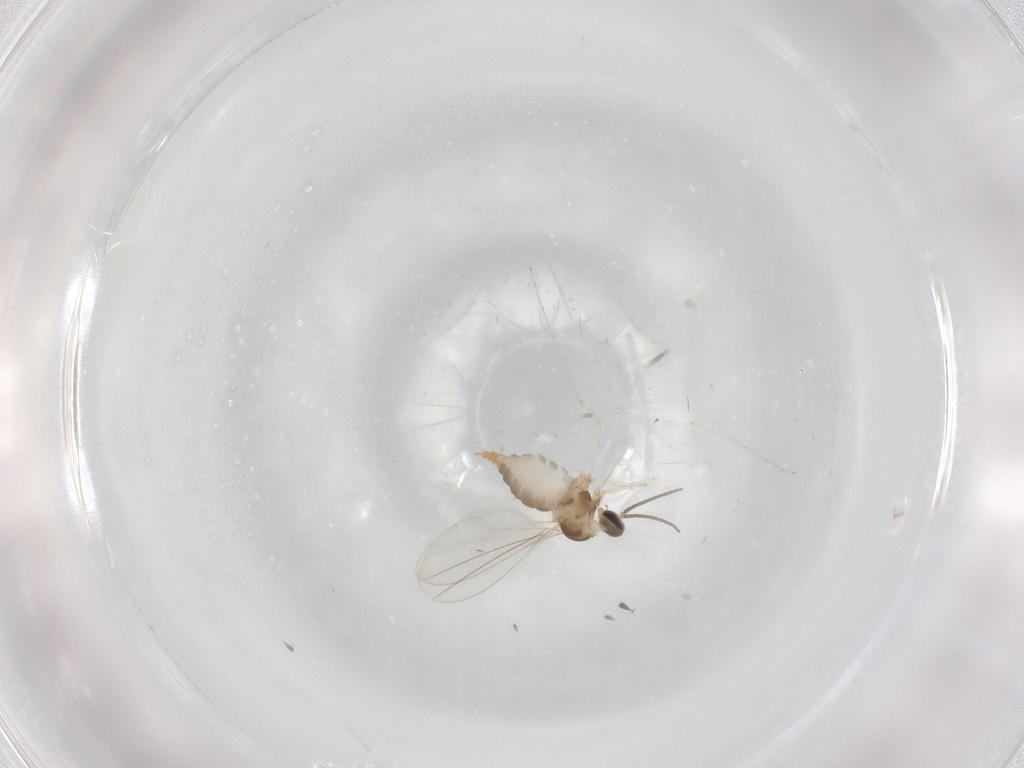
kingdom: Animalia
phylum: Arthropoda
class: Insecta
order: Diptera
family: Cecidomyiidae
